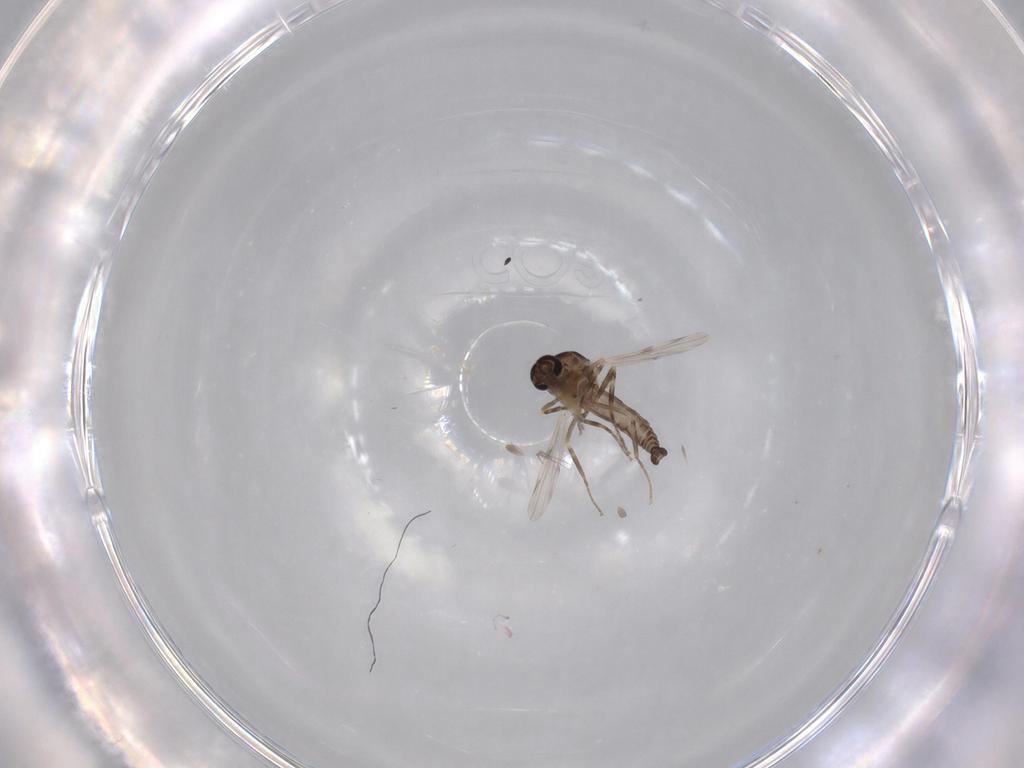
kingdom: Animalia
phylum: Arthropoda
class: Insecta
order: Diptera
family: Ceratopogonidae
